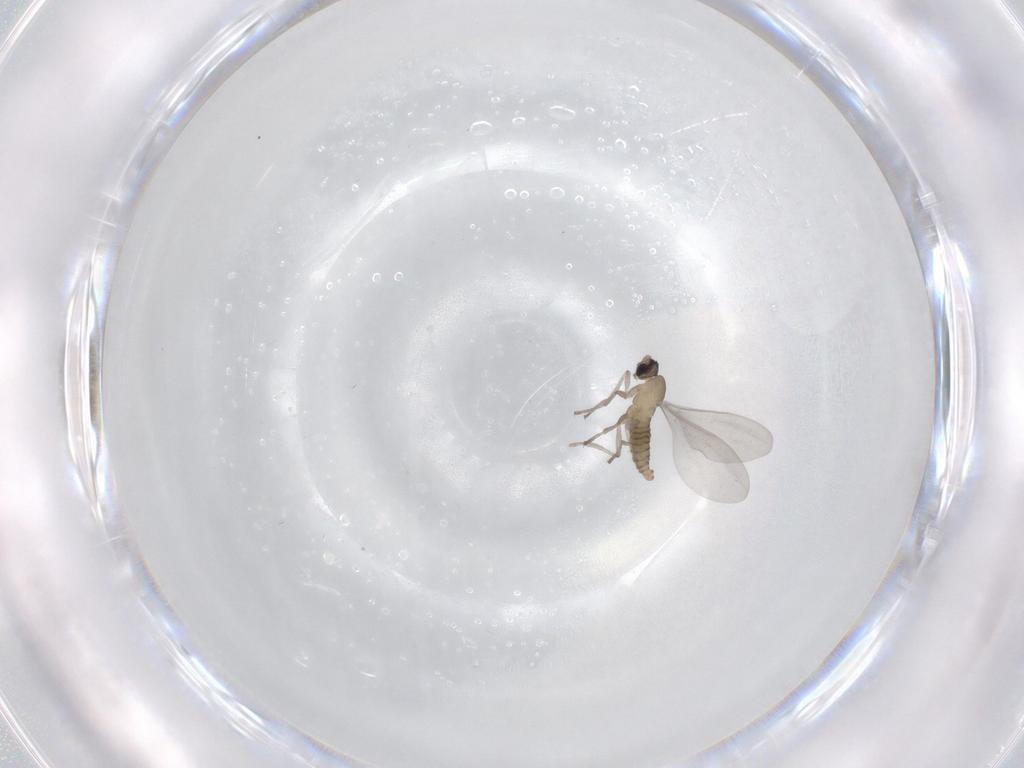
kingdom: Animalia
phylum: Arthropoda
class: Insecta
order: Diptera
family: Cecidomyiidae
